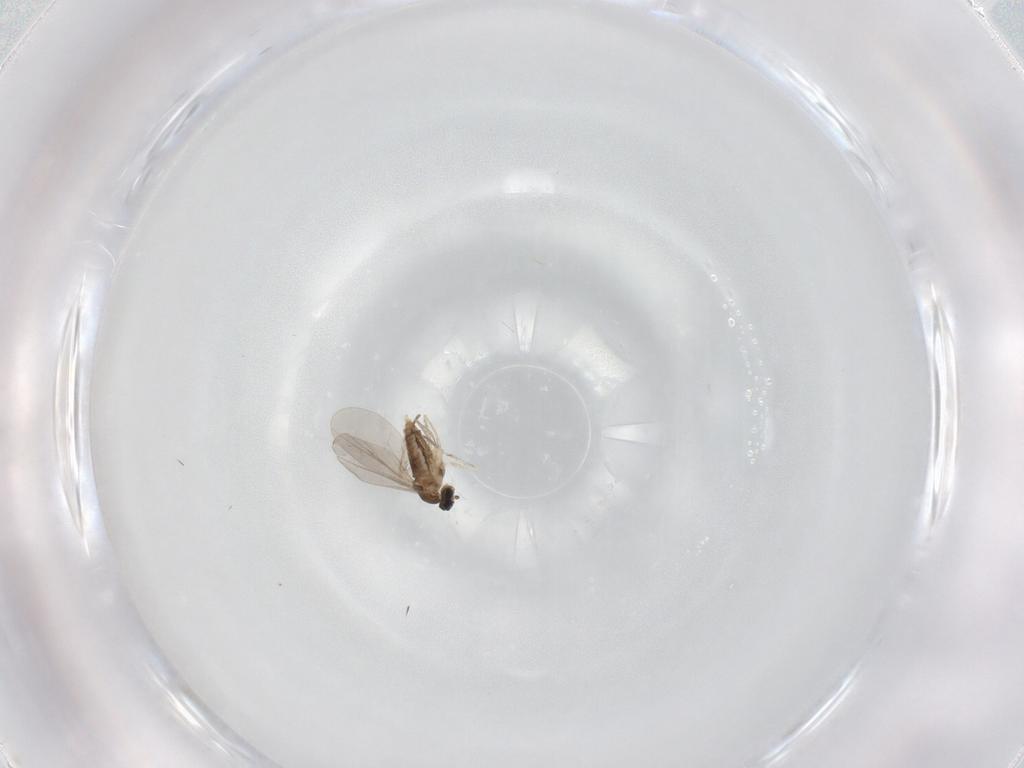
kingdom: Animalia
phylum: Arthropoda
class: Insecta
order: Diptera
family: Cecidomyiidae
